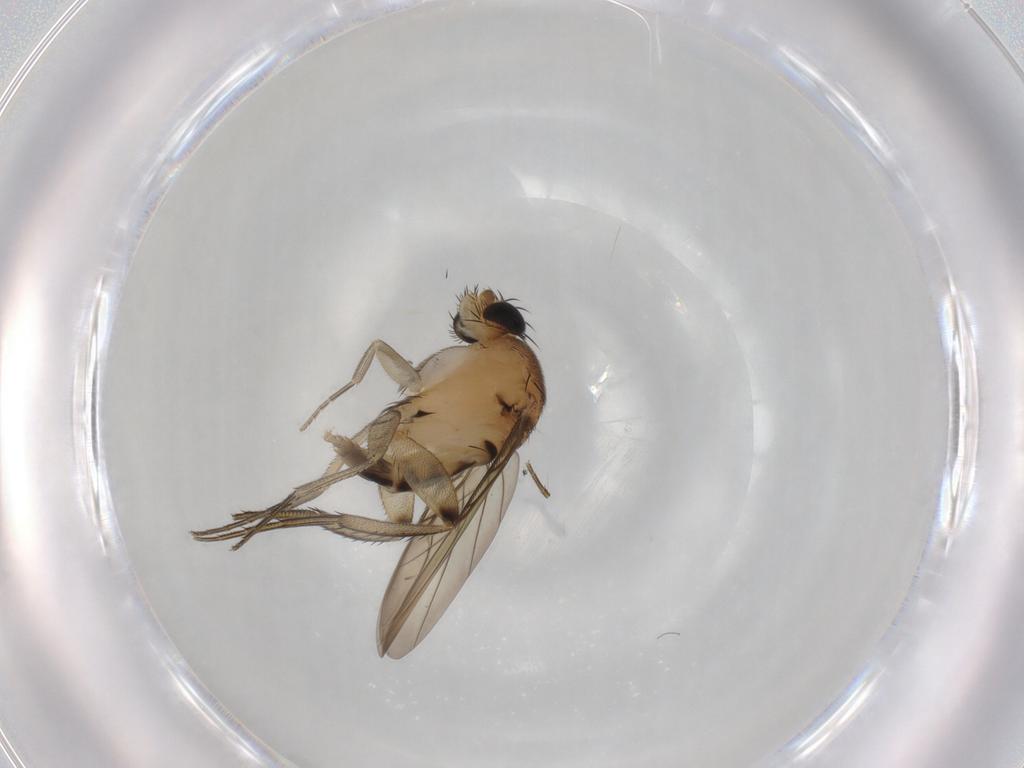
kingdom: Animalia
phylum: Arthropoda
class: Insecta
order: Diptera
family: Phoridae
